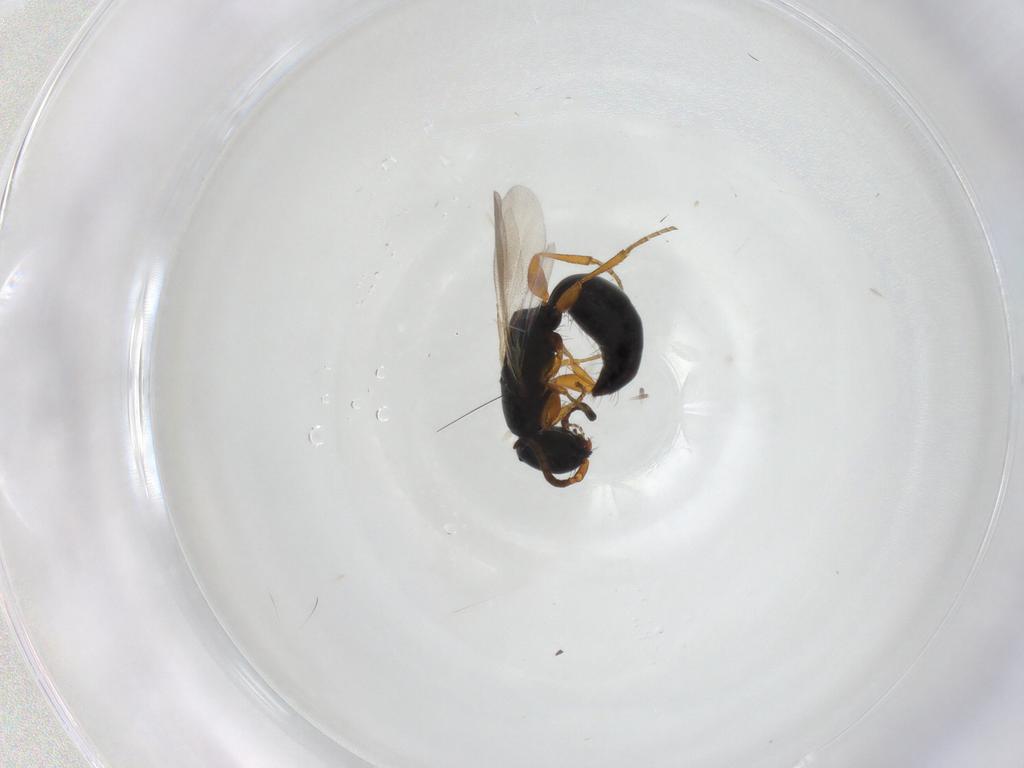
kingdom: Animalia
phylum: Arthropoda
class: Insecta
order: Hymenoptera
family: Bethylidae
